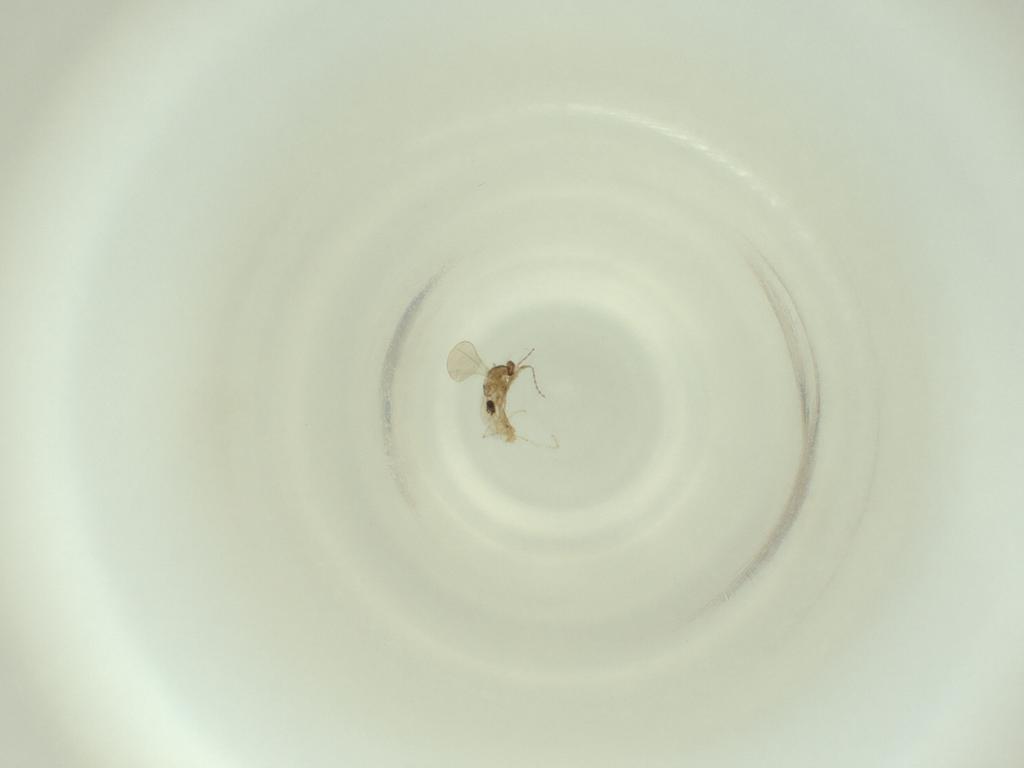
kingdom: Animalia
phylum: Arthropoda
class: Insecta
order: Diptera
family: Cecidomyiidae
